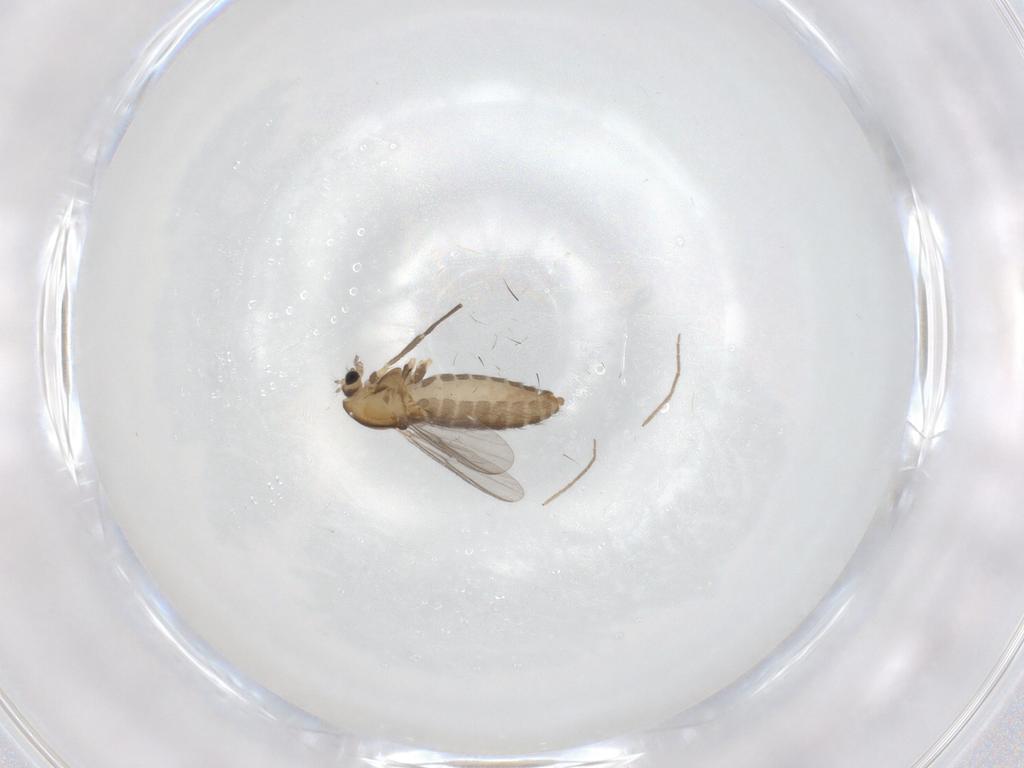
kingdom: Animalia
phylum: Arthropoda
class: Insecta
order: Diptera
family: Chironomidae
